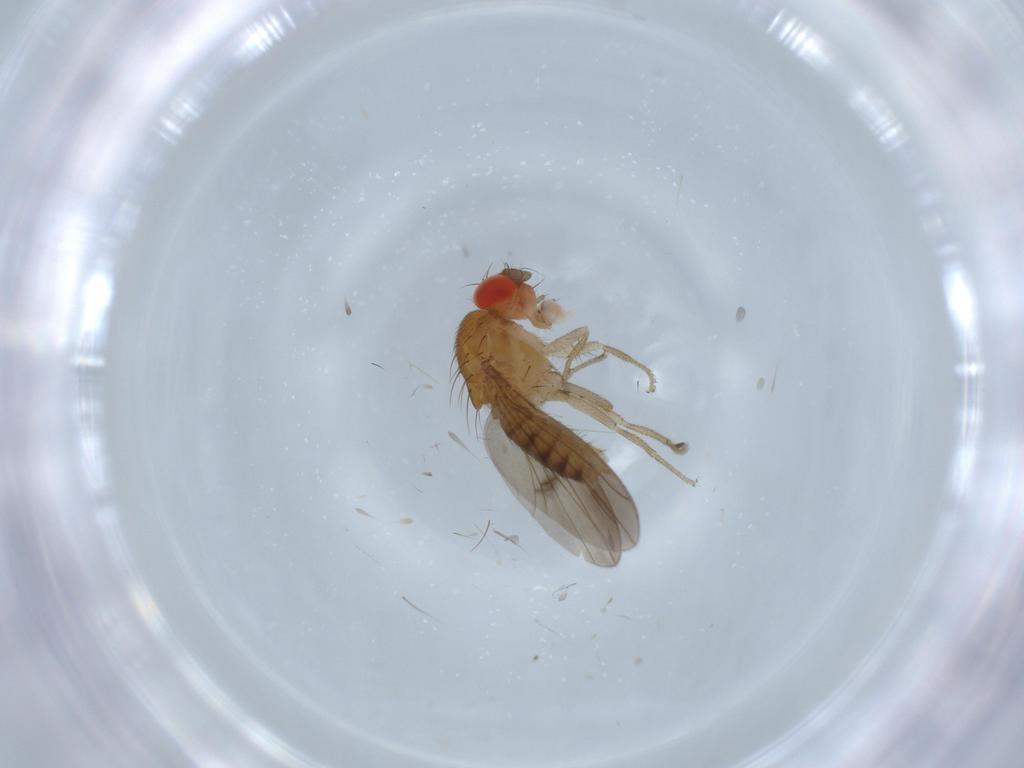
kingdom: Animalia
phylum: Arthropoda
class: Insecta
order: Diptera
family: Drosophilidae
